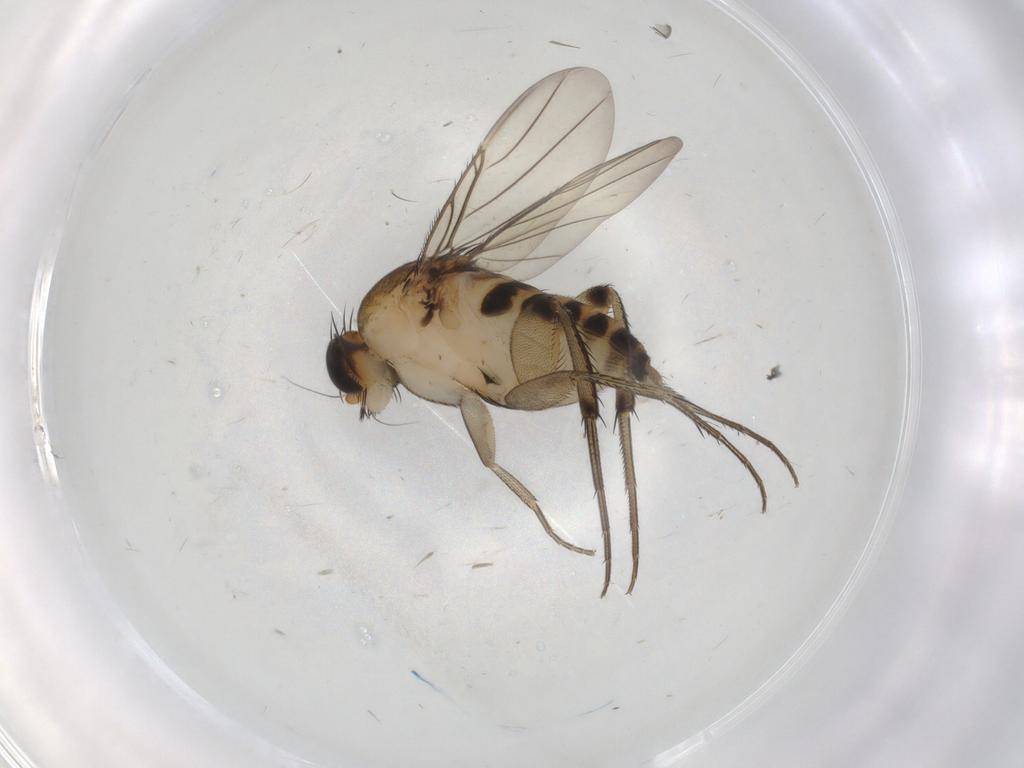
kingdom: Animalia
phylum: Arthropoda
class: Insecta
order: Diptera
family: Phoridae
